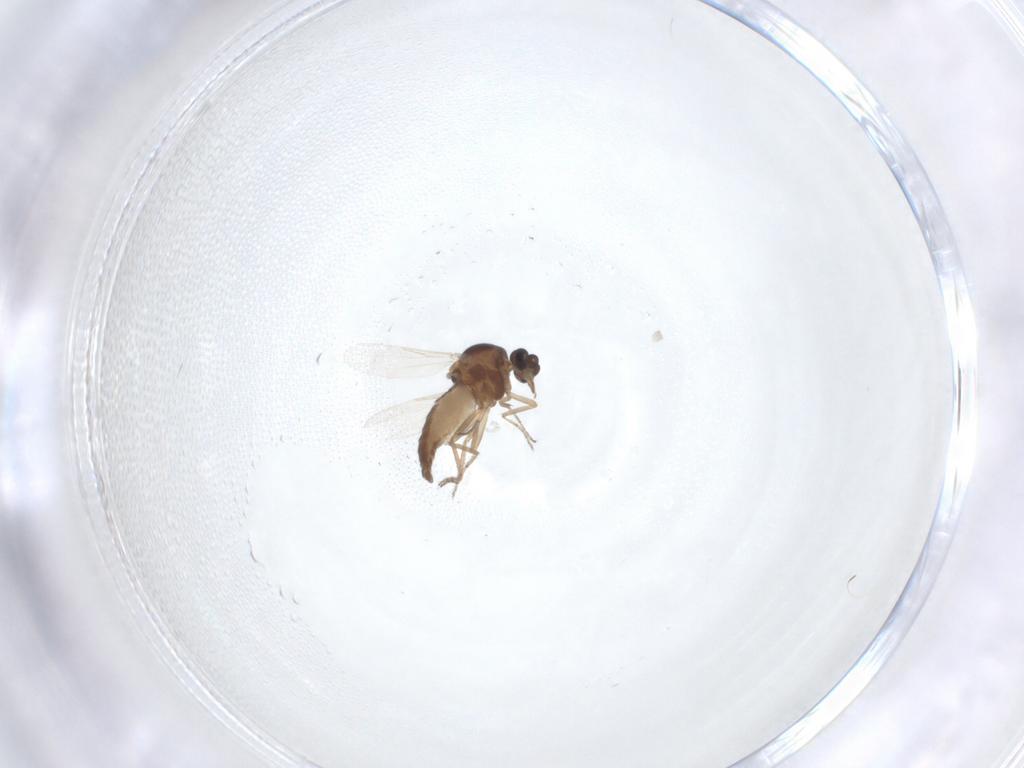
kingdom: Animalia
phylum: Arthropoda
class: Insecta
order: Diptera
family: Ceratopogonidae
